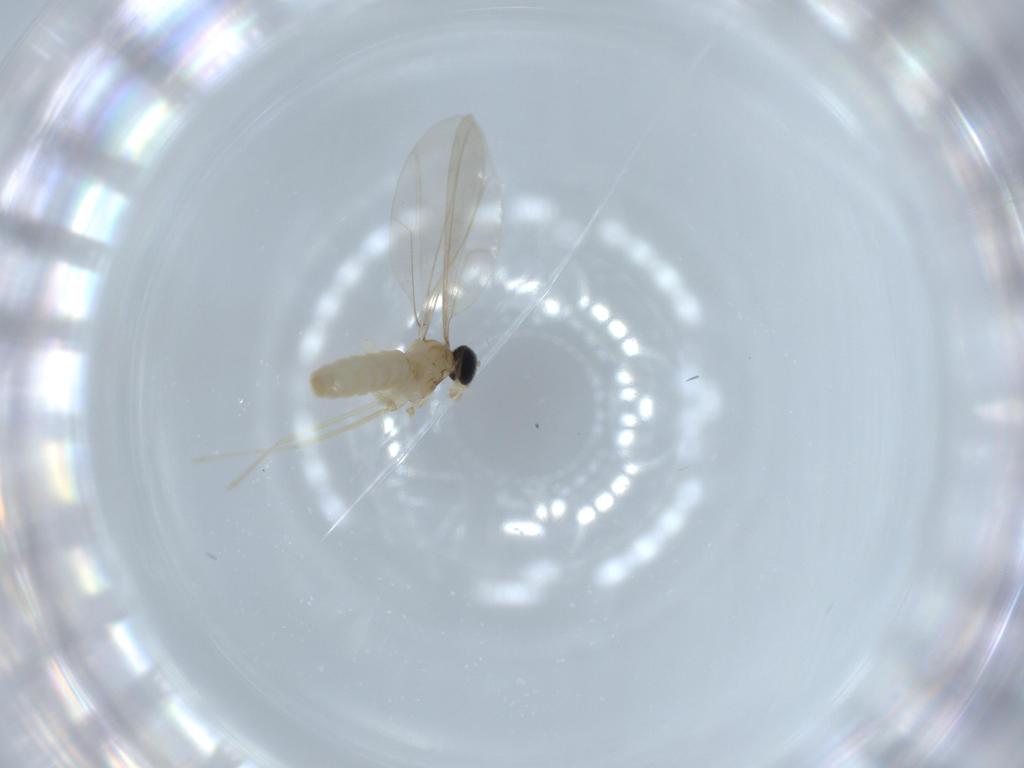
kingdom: Animalia
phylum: Arthropoda
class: Insecta
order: Diptera
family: Cecidomyiidae
